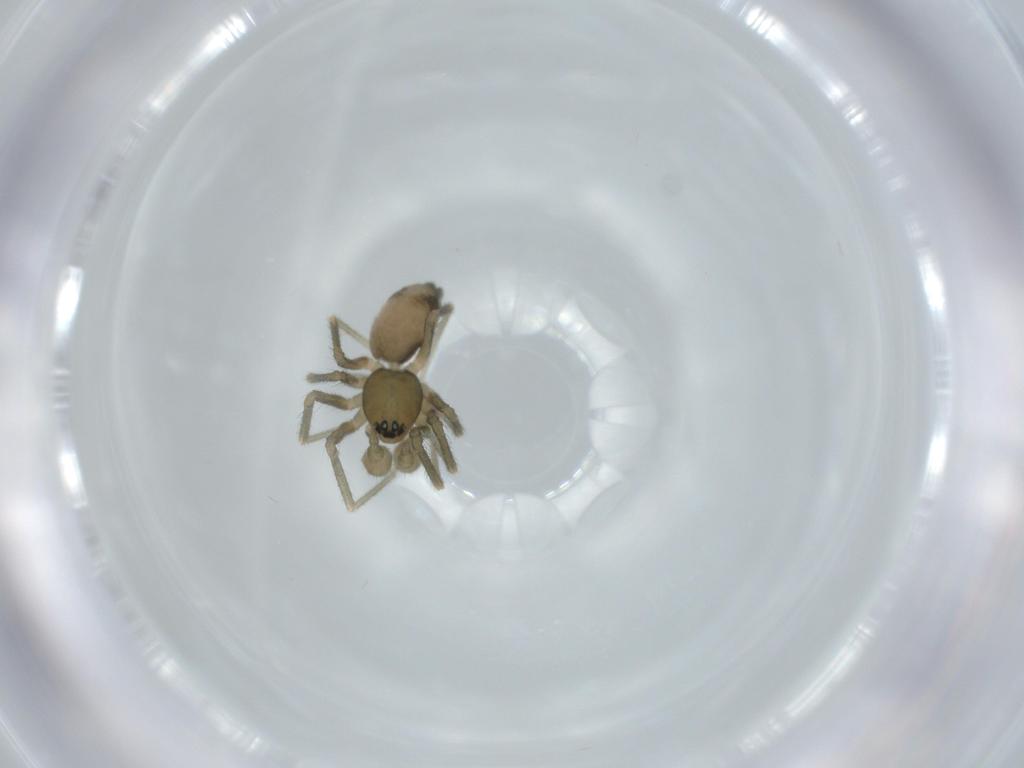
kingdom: Animalia
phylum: Arthropoda
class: Arachnida
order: Araneae
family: Linyphiidae
